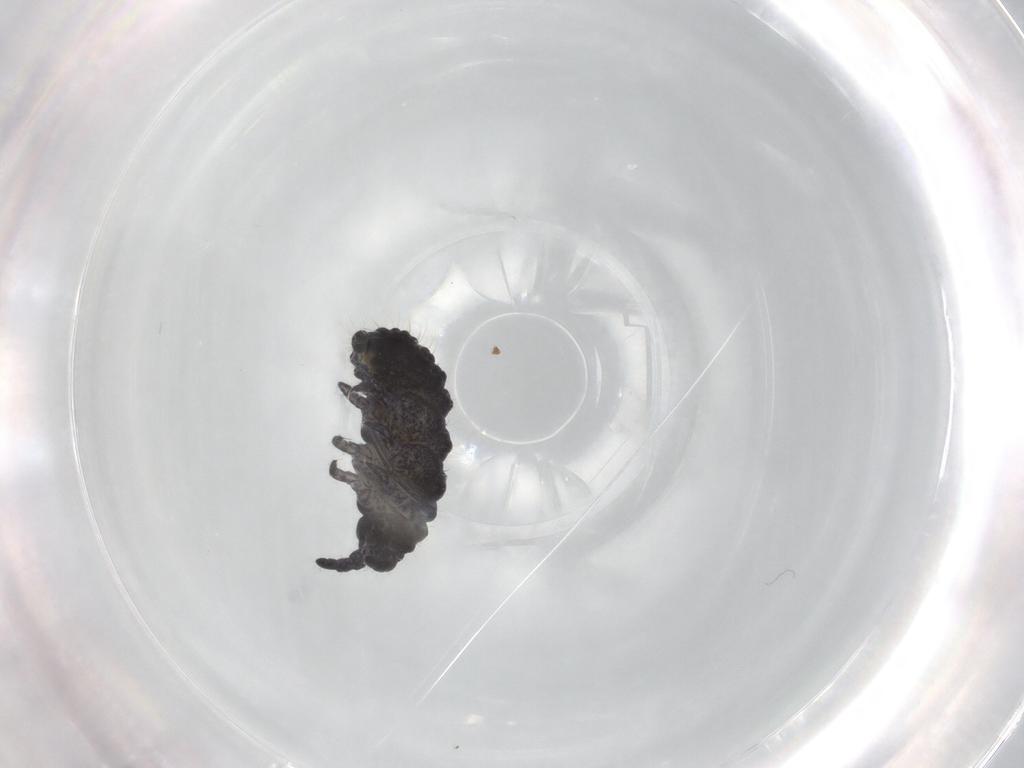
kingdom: Animalia
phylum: Arthropoda
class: Collembola
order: Poduromorpha
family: Neanuridae
